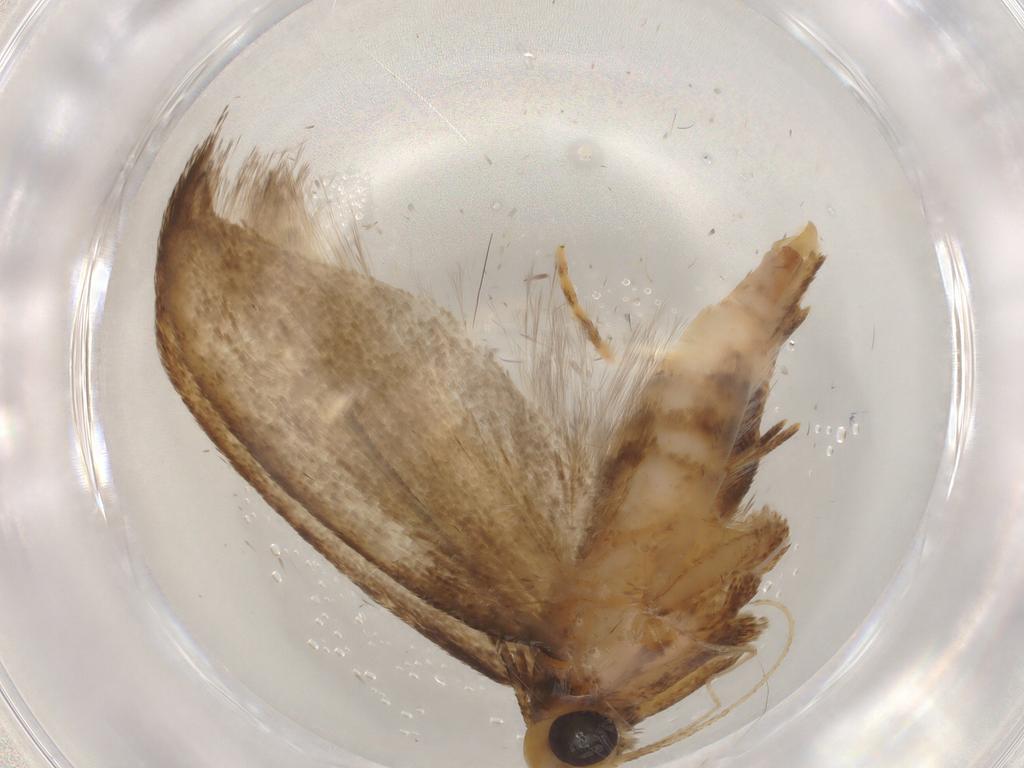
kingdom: Animalia
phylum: Arthropoda
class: Insecta
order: Lepidoptera
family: Erebidae
